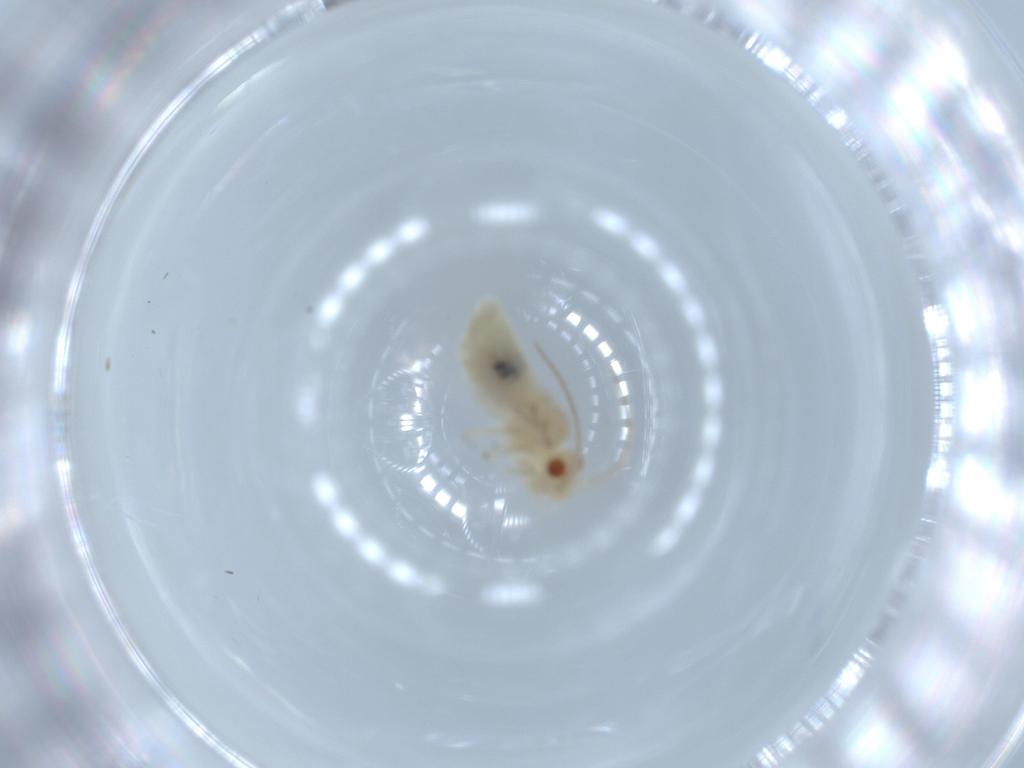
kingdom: Animalia
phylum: Arthropoda
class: Insecta
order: Psocodea
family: Caeciliusidae
